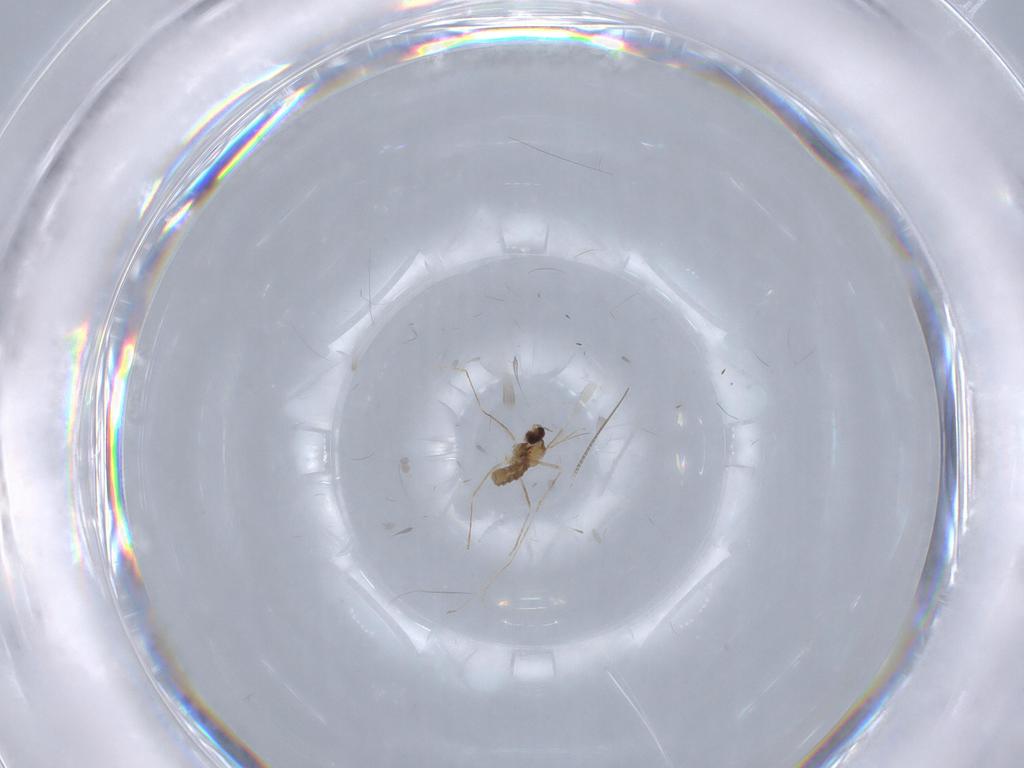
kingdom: Animalia
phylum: Arthropoda
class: Insecta
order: Diptera
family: Cecidomyiidae
